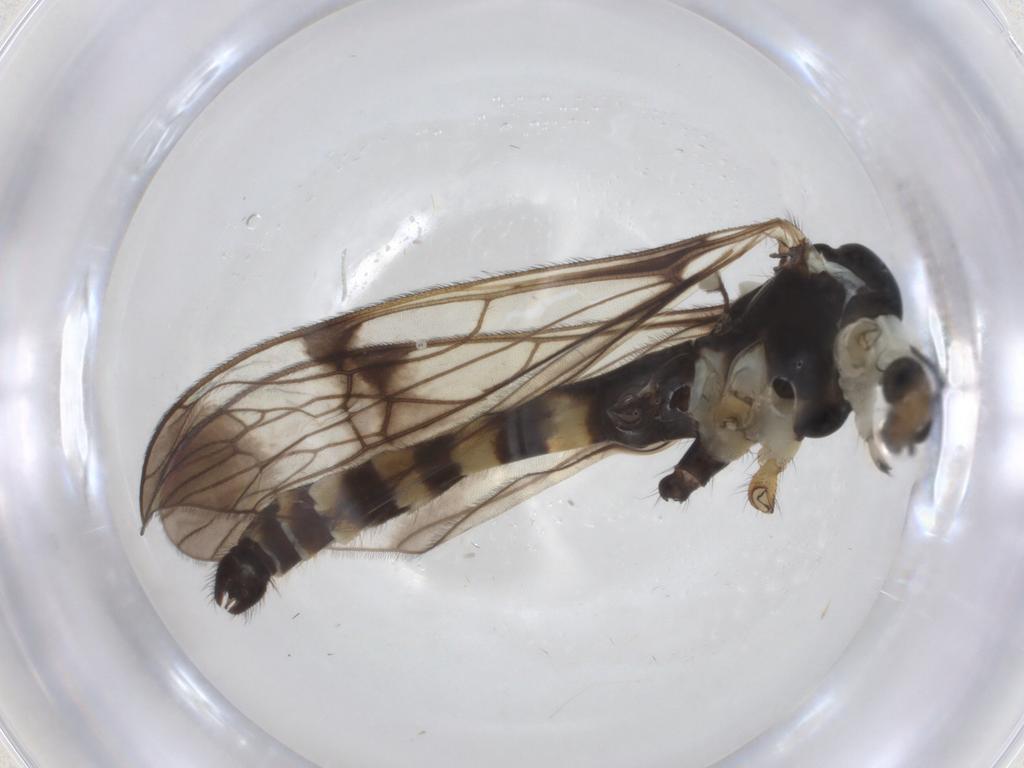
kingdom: Animalia
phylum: Arthropoda
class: Insecta
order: Diptera
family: Limoniidae
